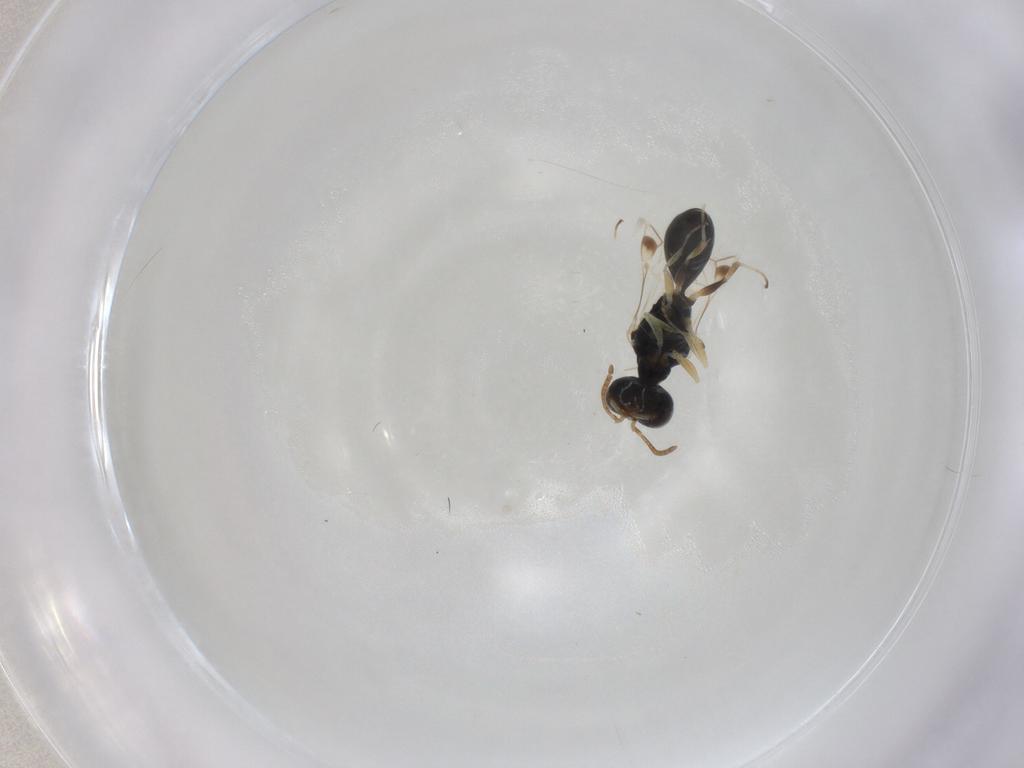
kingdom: Animalia
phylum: Arthropoda
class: Insecta
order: Hymenoptera
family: Pemphredonidae
